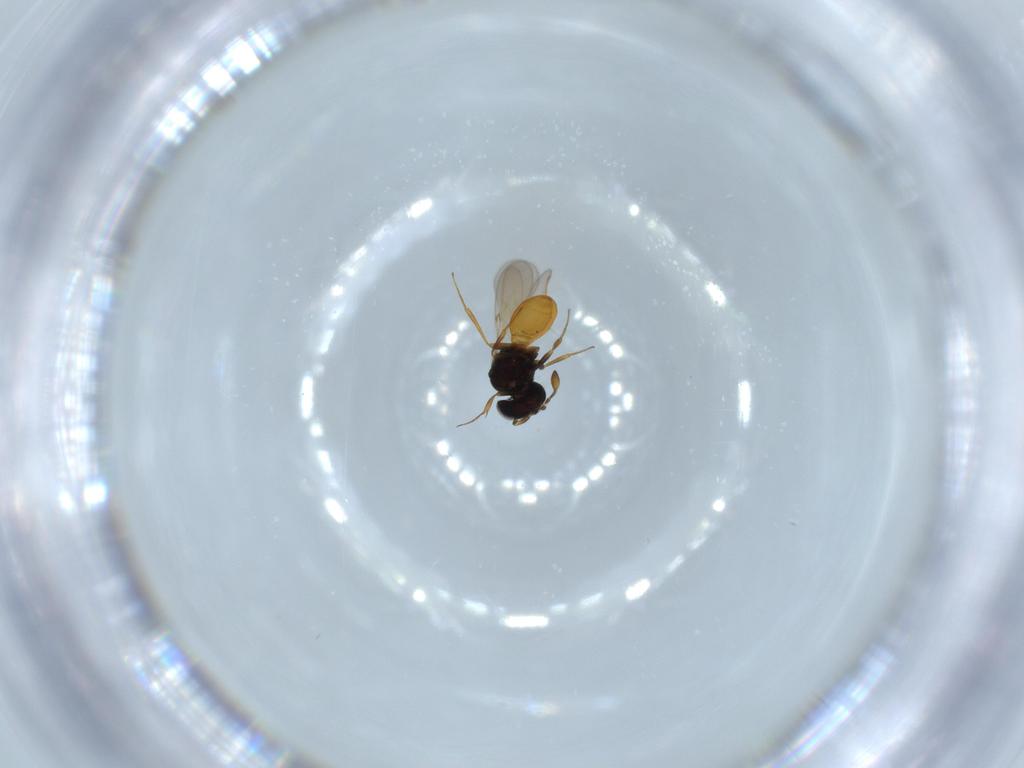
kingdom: Animalia
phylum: Arthropoda
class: Insecta
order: Hymenoptera
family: Scelionidae
